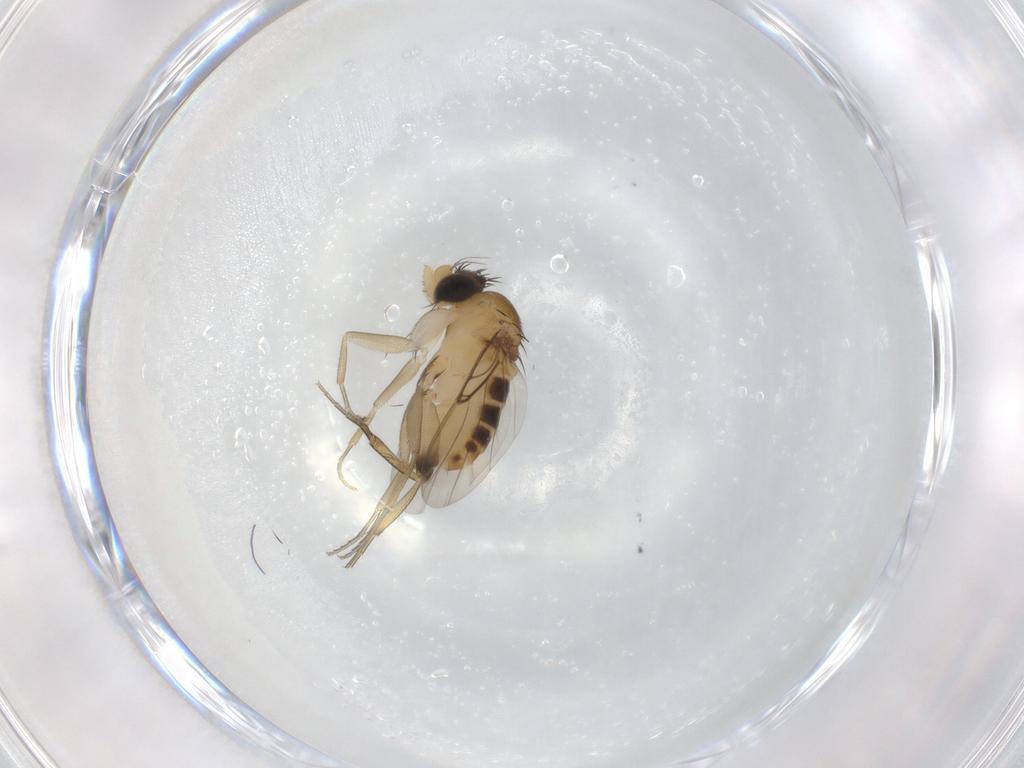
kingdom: Animalia
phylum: Arthropoda
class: Insecta
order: Diptera
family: Phoridae
